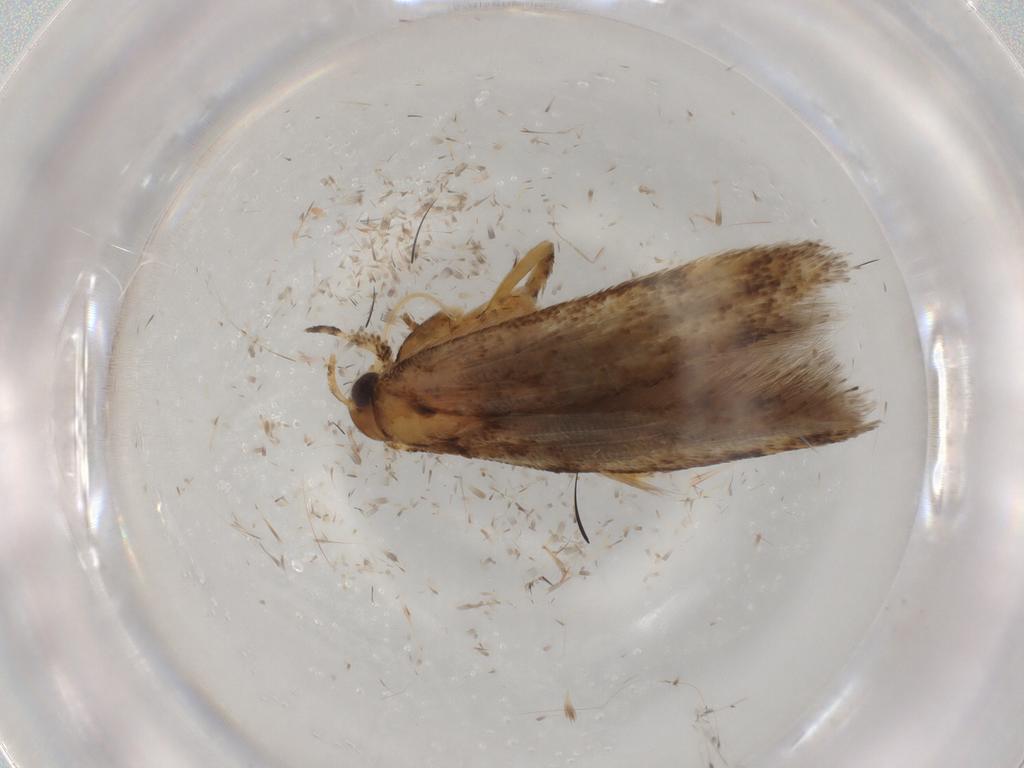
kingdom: Animalia
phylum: Arthropoda
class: Insecta
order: Lepidoptera
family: Gelechiidae
